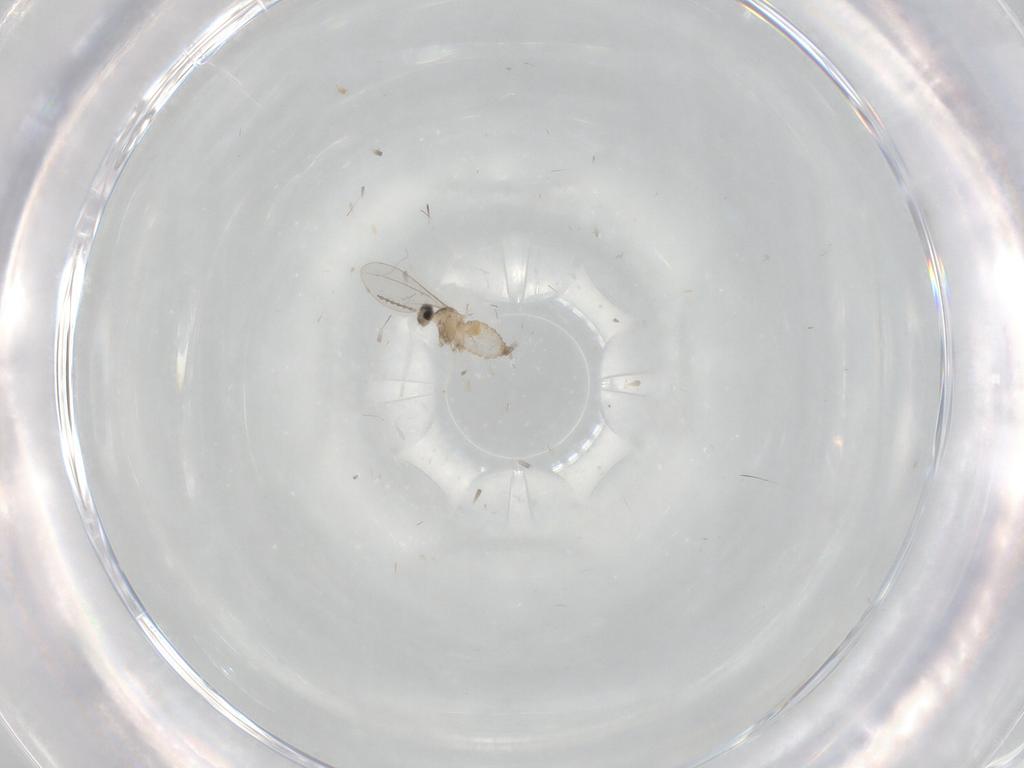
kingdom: Animalia
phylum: Arthropoda
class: Insecta
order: Diptera
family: Cecidomyiidae
